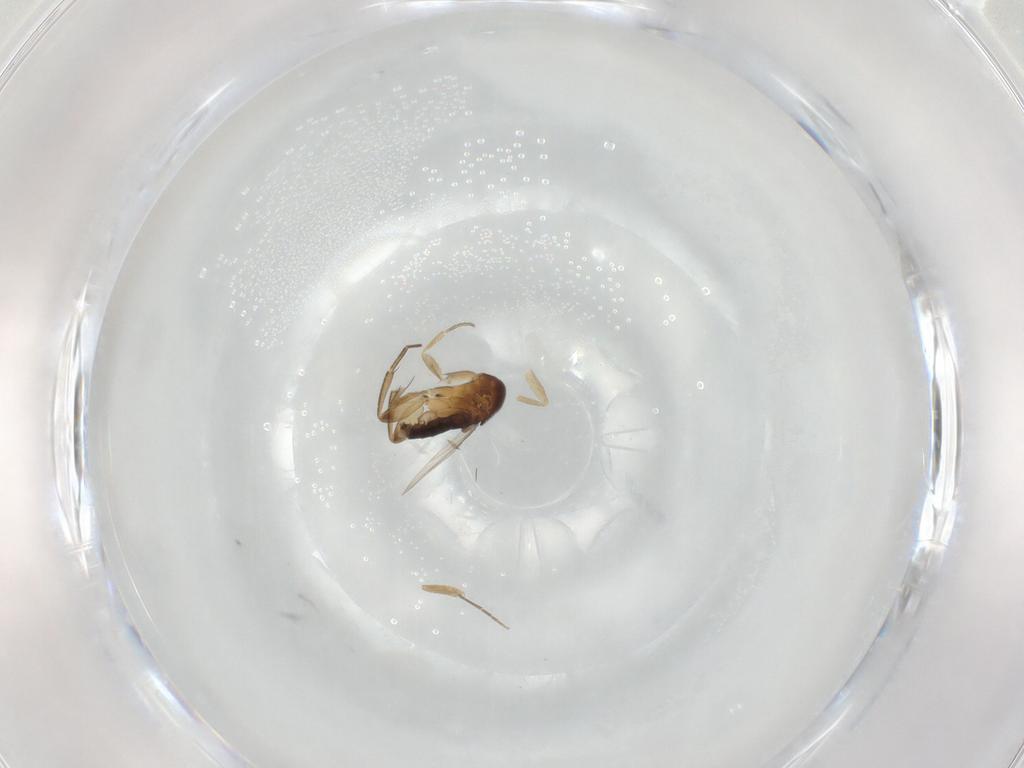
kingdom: Animalia
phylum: Arthropoda
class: Insecta
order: Diptera
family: Phoridae
